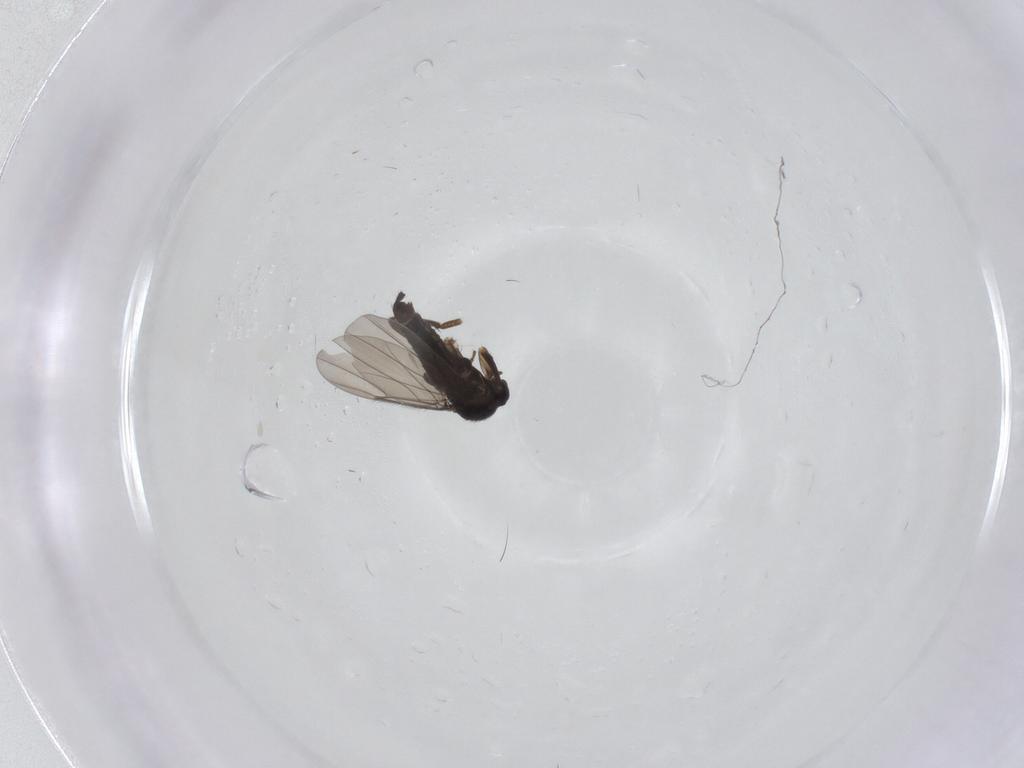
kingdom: Animalia
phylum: Arthropoda
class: Insecta
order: Diptera
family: Phoridae
